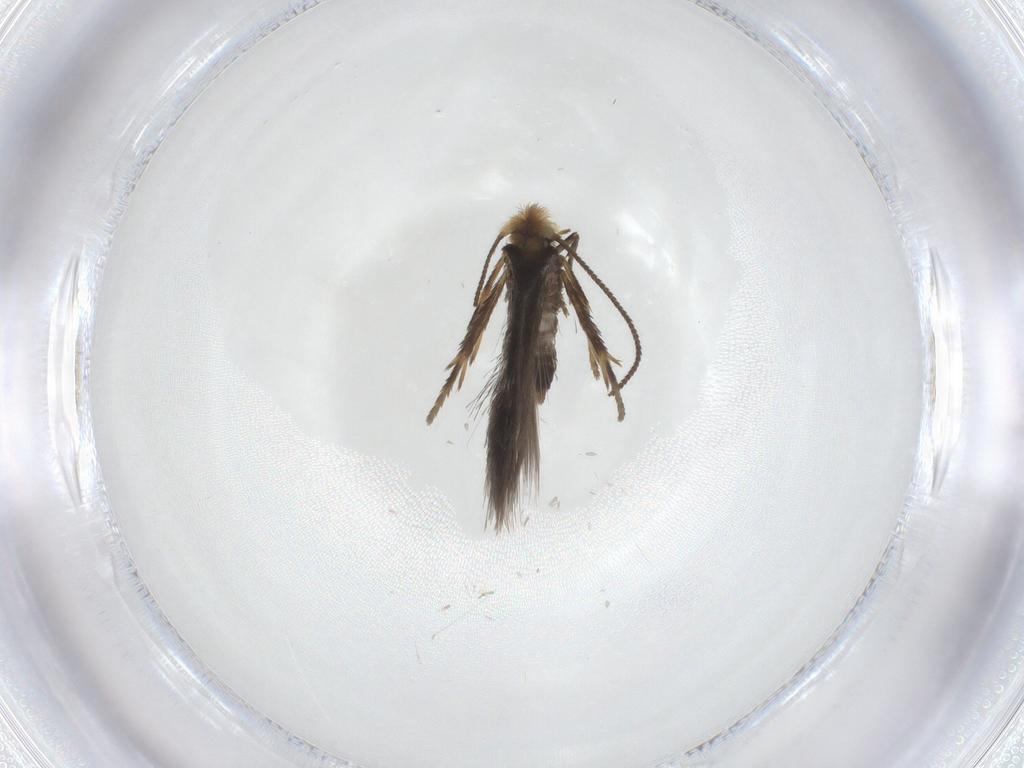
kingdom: Animalia
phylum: Arthropoda
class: Insecta
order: Lepidoptera
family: Nepticulidae
